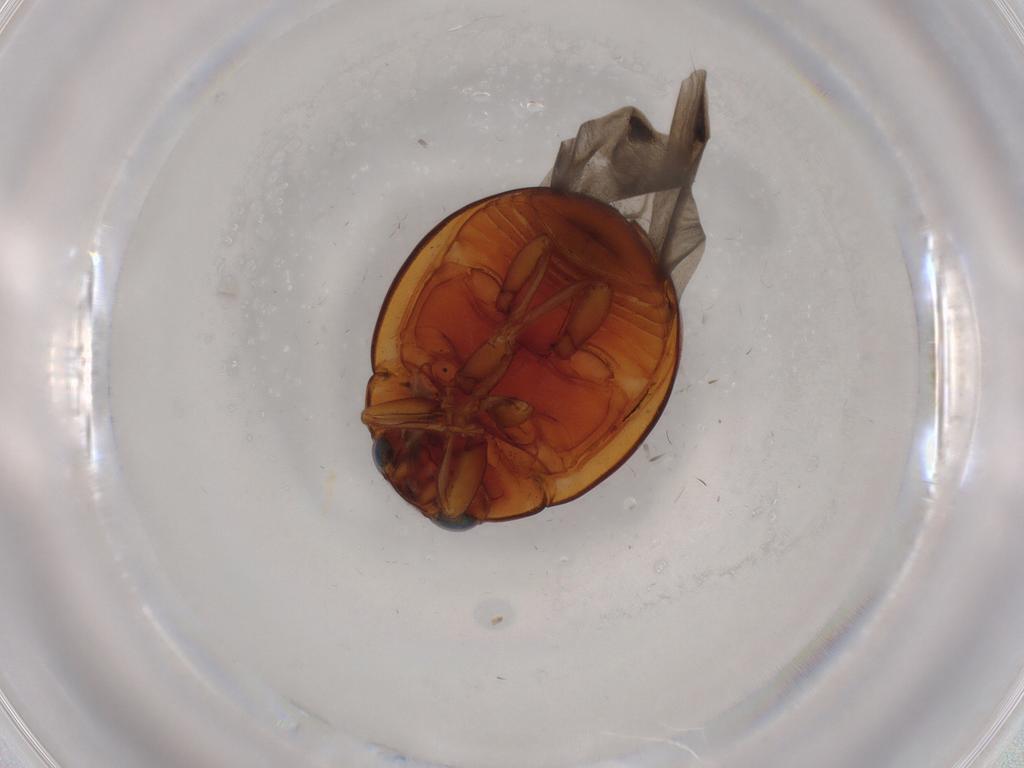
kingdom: Animalia
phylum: Arthropoda
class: Insecta
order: Coleoptera
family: Coccinellidae
